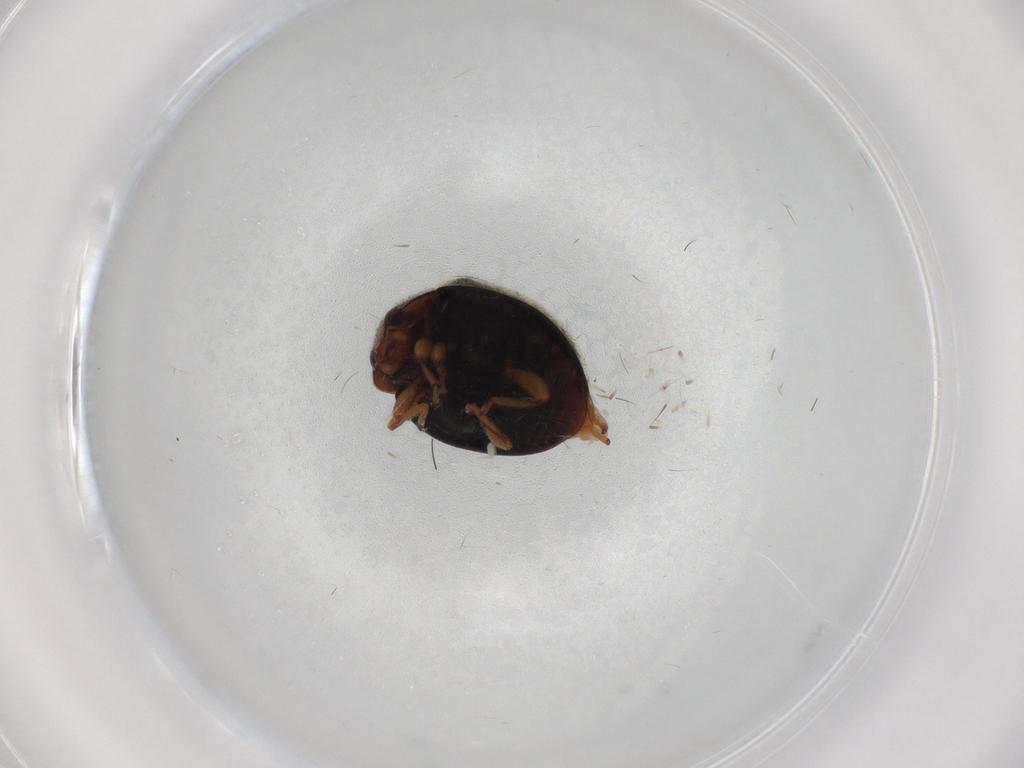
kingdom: Animalia
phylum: Arthropoda
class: Insecta
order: Coleoptera
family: Coccinellidae
